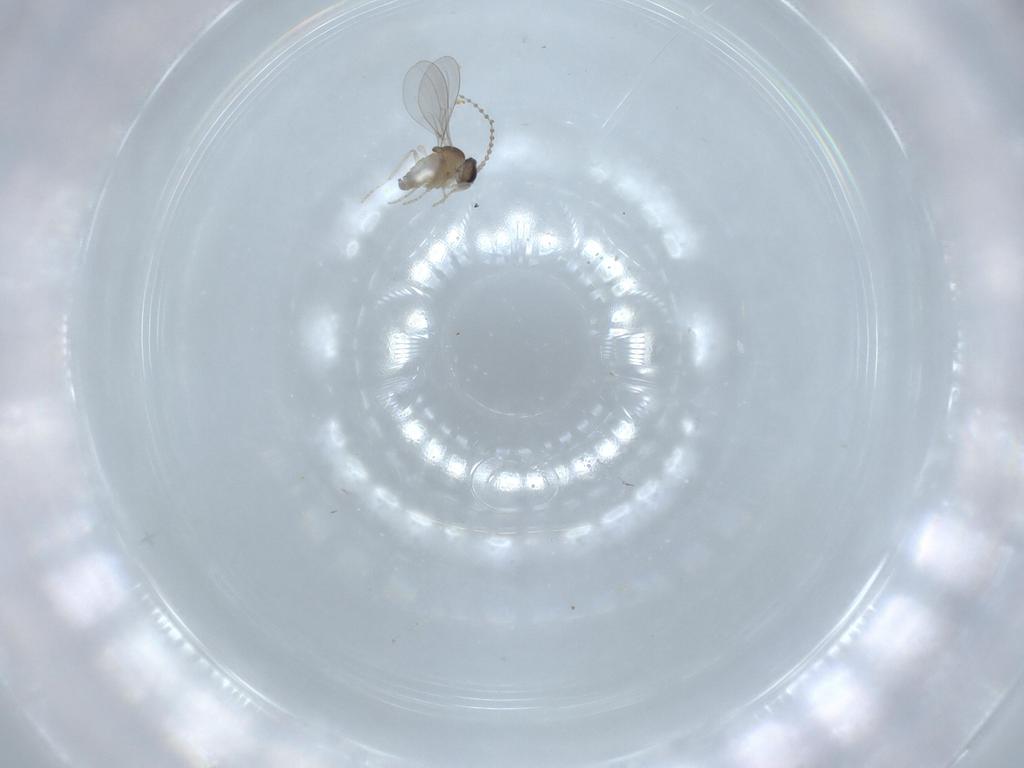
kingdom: Animalia
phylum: Arthropoda
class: Insecta
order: Diptera
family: Cecidomyiidae
